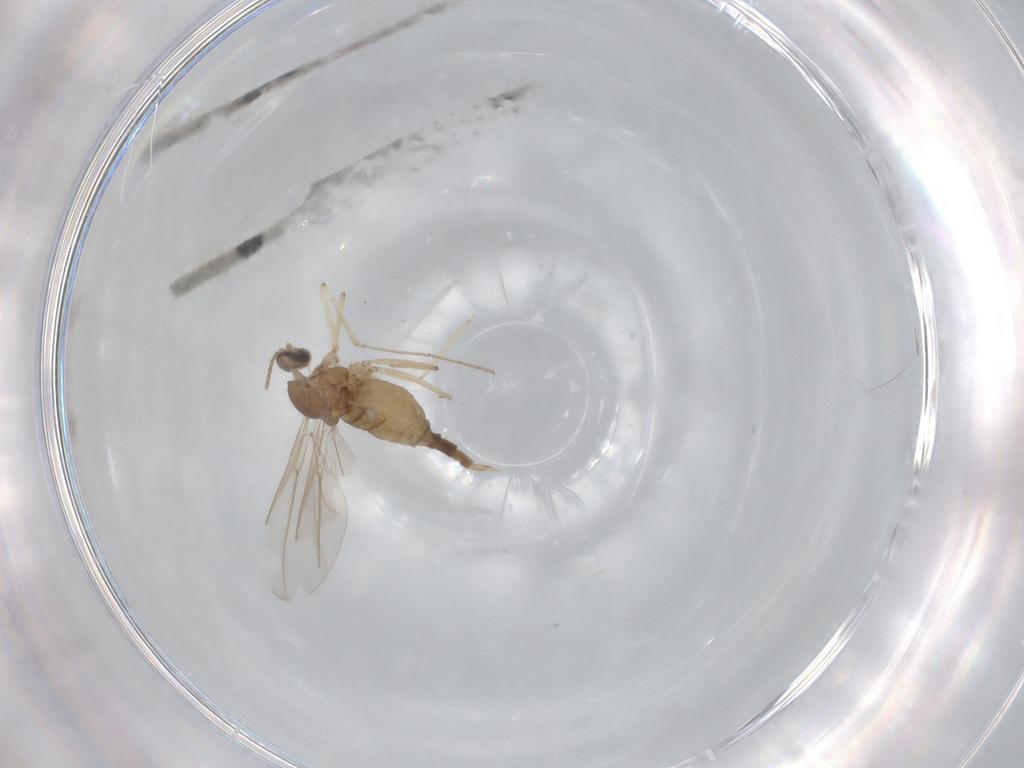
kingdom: Animalia
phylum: Arthropoda
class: Insecta
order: Diptera
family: Cecidomyiidae
